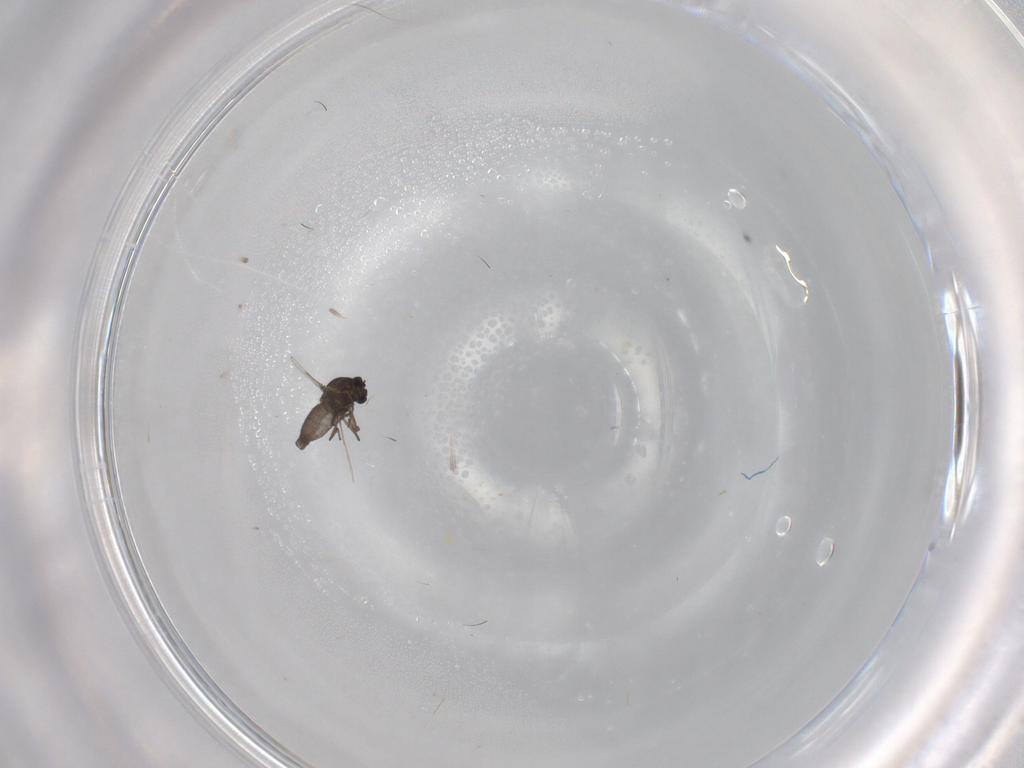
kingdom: Animalia
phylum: Arthropoda
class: Insecta
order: Diptera
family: Ceratopogonidae
